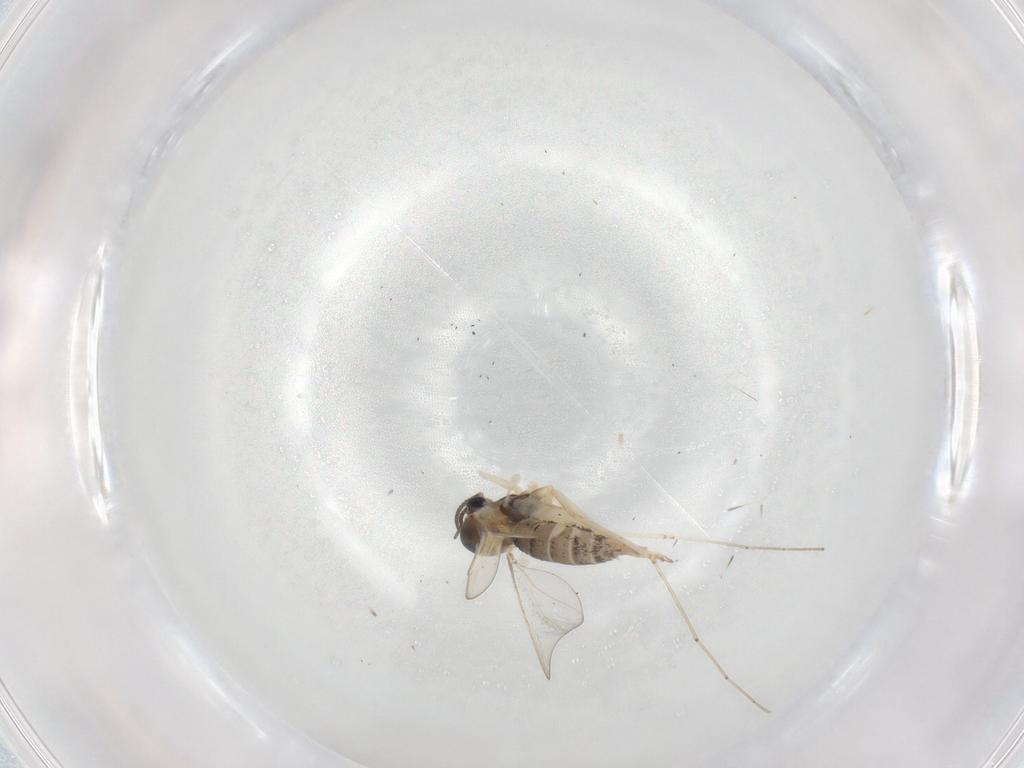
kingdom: Animalia
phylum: Arthropoda
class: Insecta
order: Diptera
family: Cecidomyiidae
